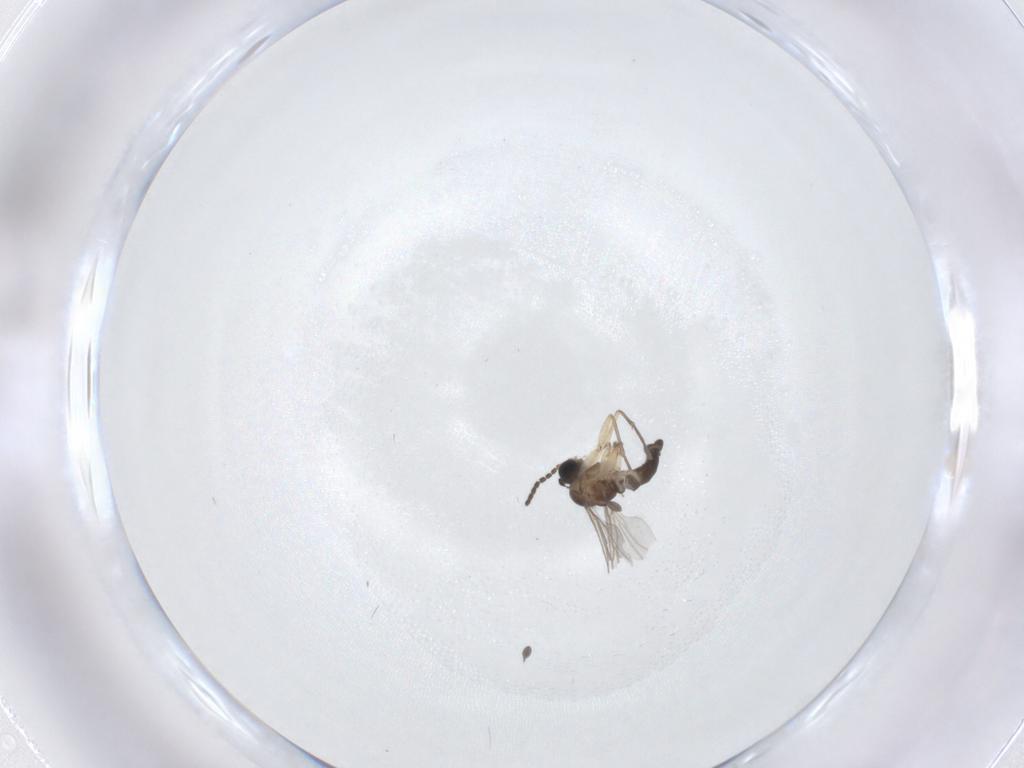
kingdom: Animalia
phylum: Arthropoda
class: Insecta
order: Diptera
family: Sciaridae
